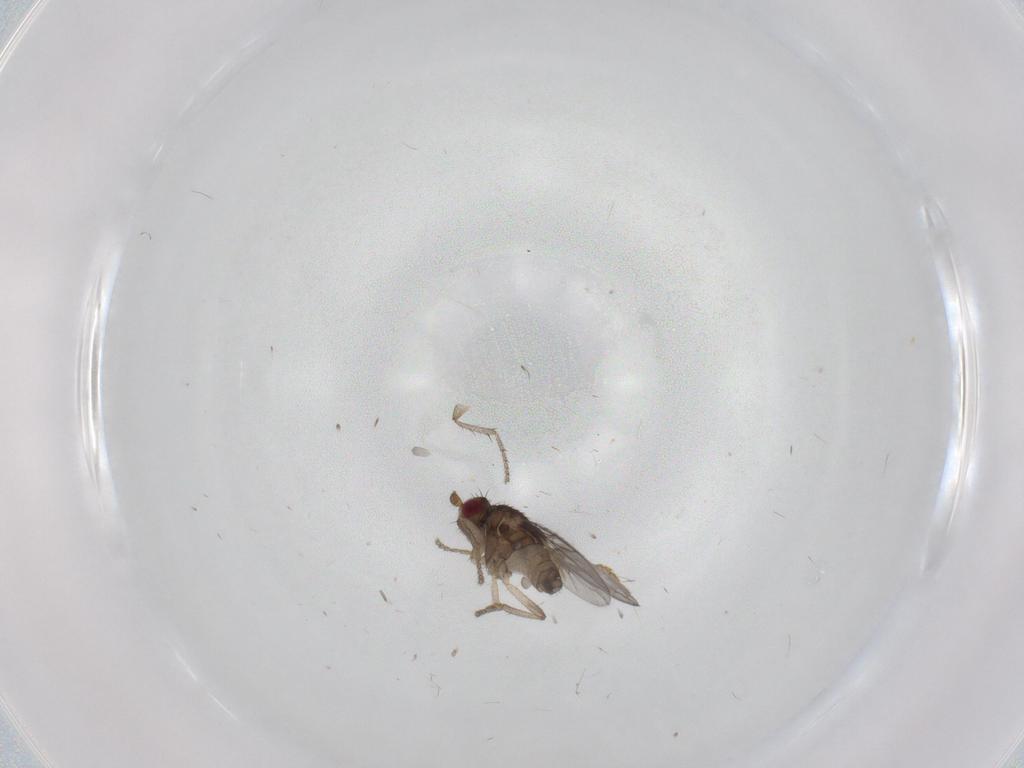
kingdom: Animalia
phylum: Arthropoda
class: Insecta
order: Diptera
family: Sphaeroceridae
